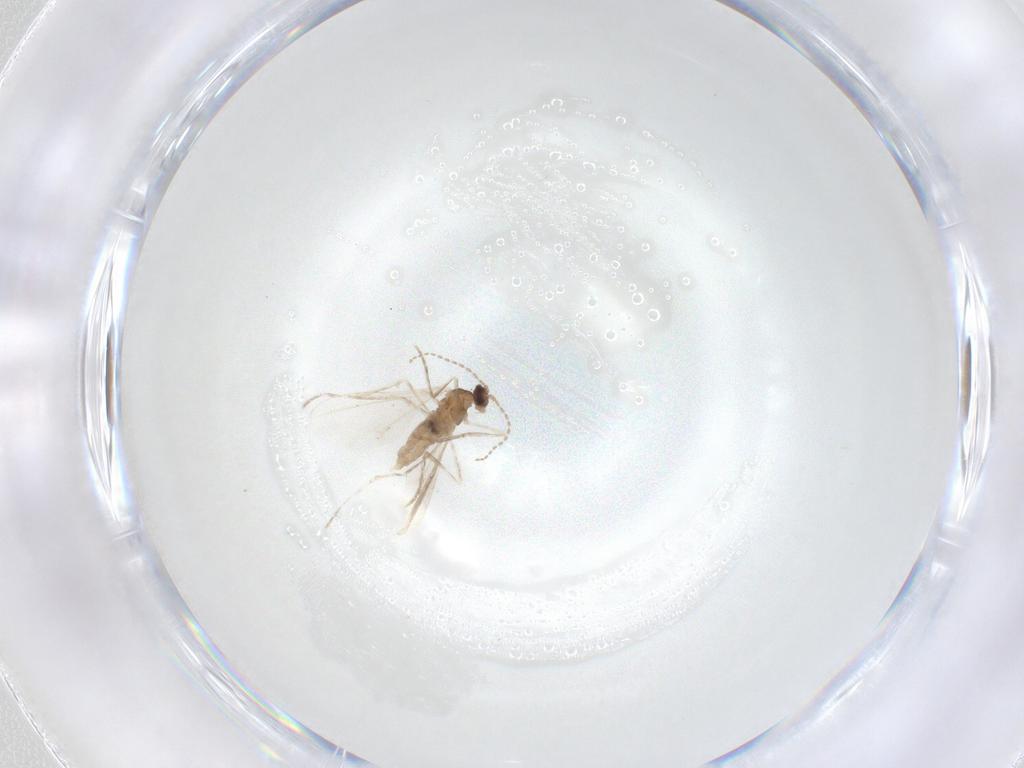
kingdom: Animalia
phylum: Arthropoda
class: Insecta
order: Diptera
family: Cecidomyiidae
